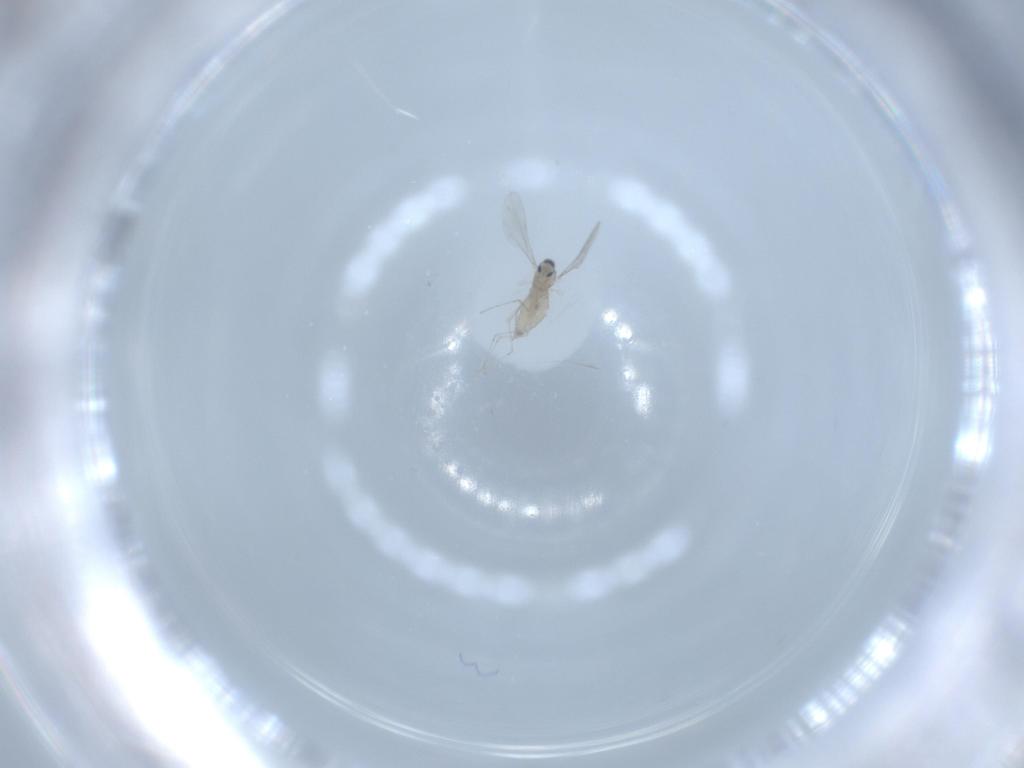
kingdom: Animalia
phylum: Arthropoda
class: Insecta
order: Diptera
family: Cecidomyiidae
